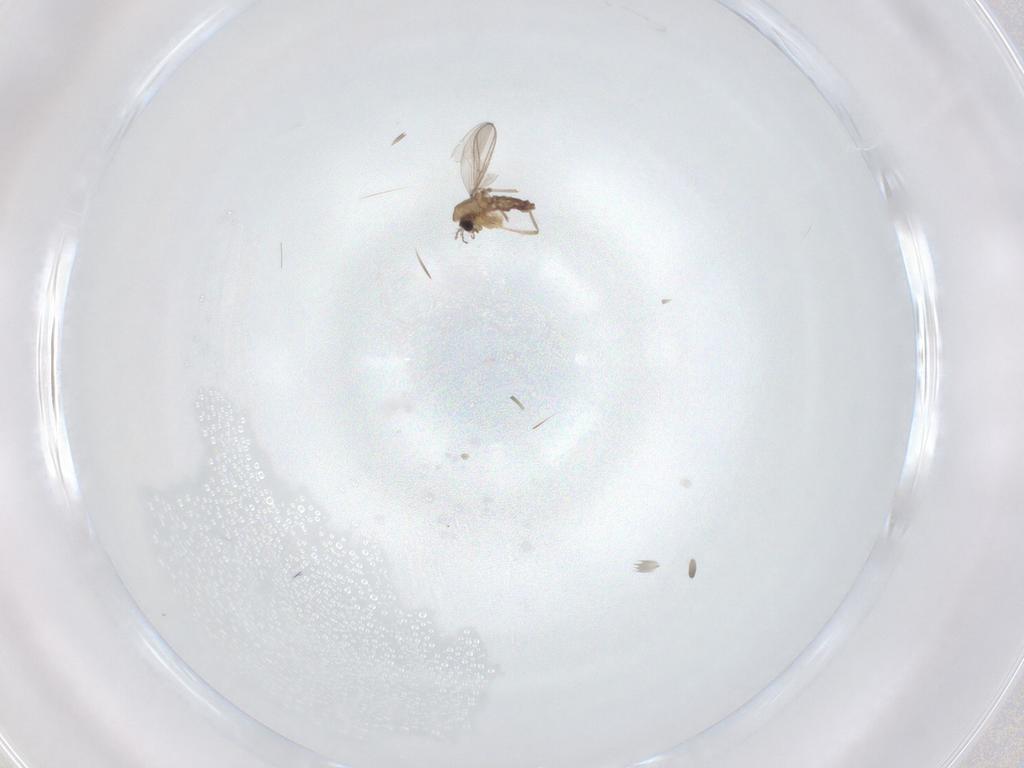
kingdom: Animalia
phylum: Arthropoda
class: Insecta
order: Diptera
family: Chironomidae
